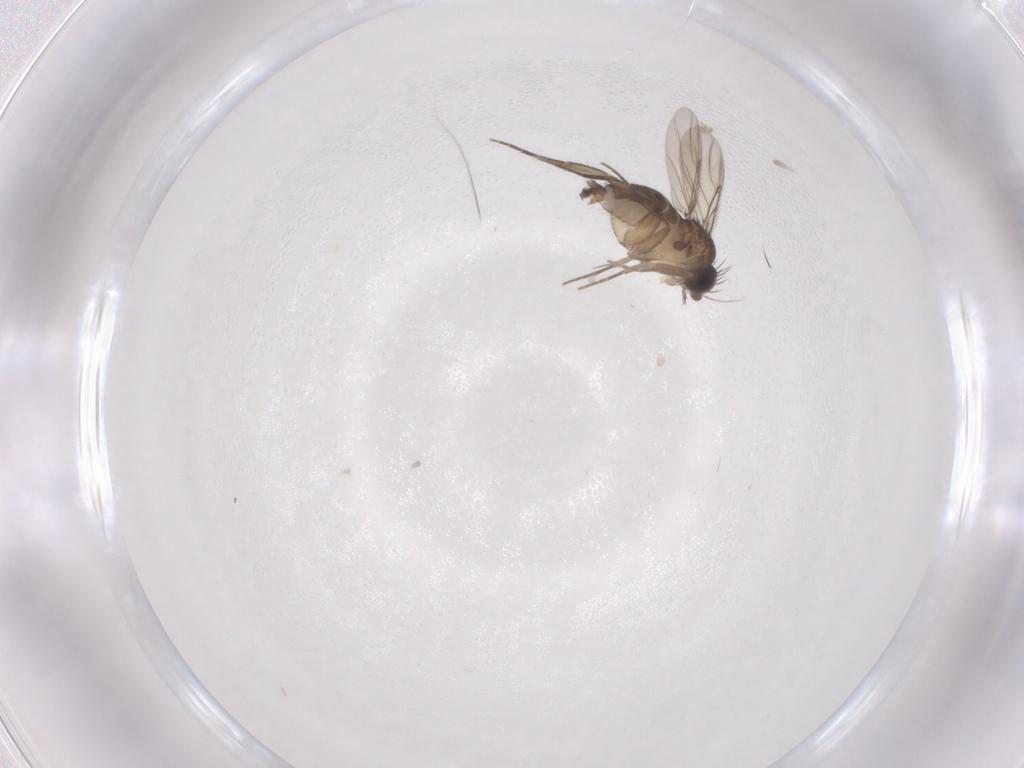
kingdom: Animalia
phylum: Arthropoda
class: Insecta
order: Diptera
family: Phoridae
